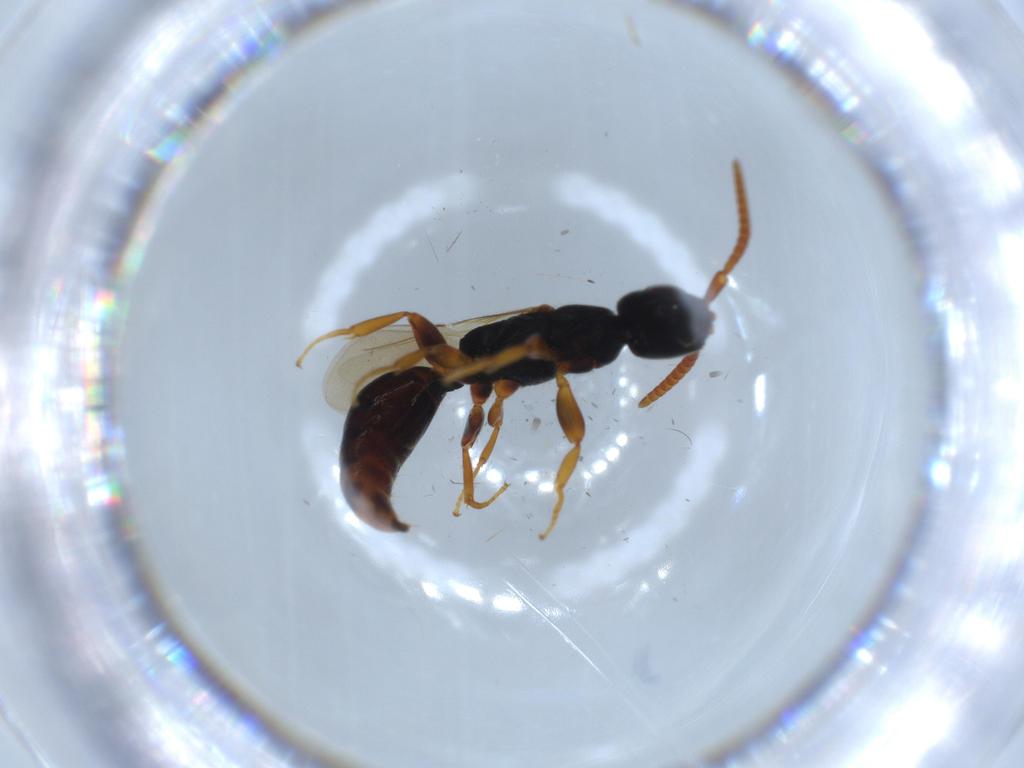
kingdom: Animalia
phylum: Arthropoda
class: Insecta
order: Hymenoptera
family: Bethylidae
